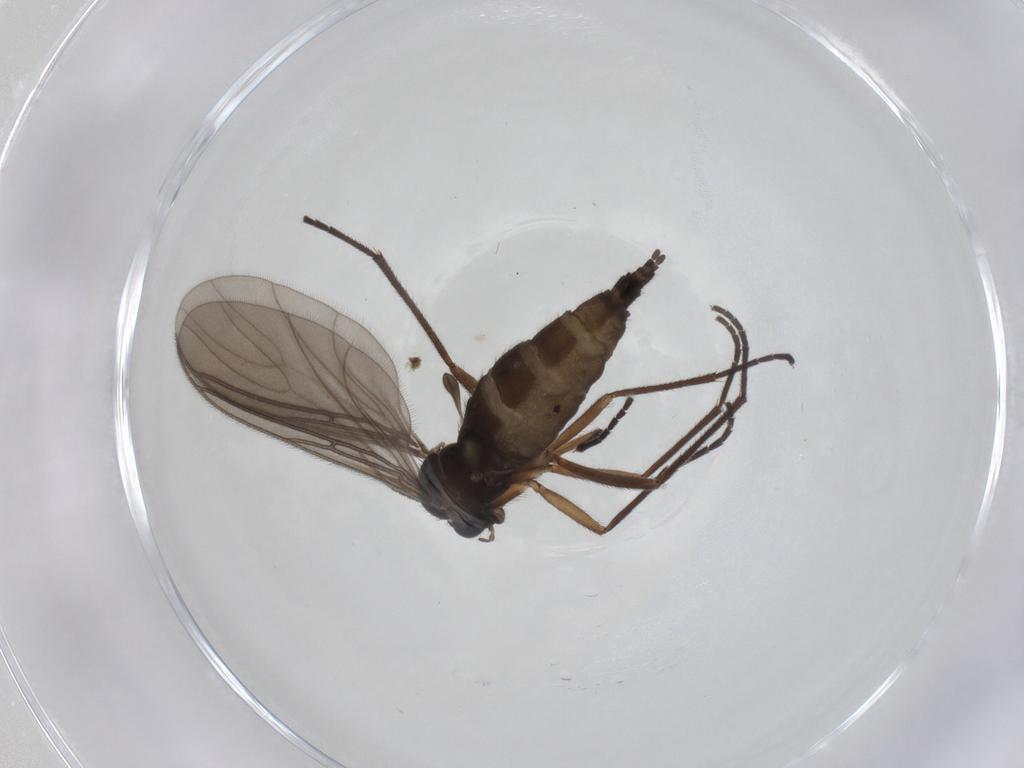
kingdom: Animalia
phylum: Arthropoda
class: Insecta
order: Diptera
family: Sciaridae
